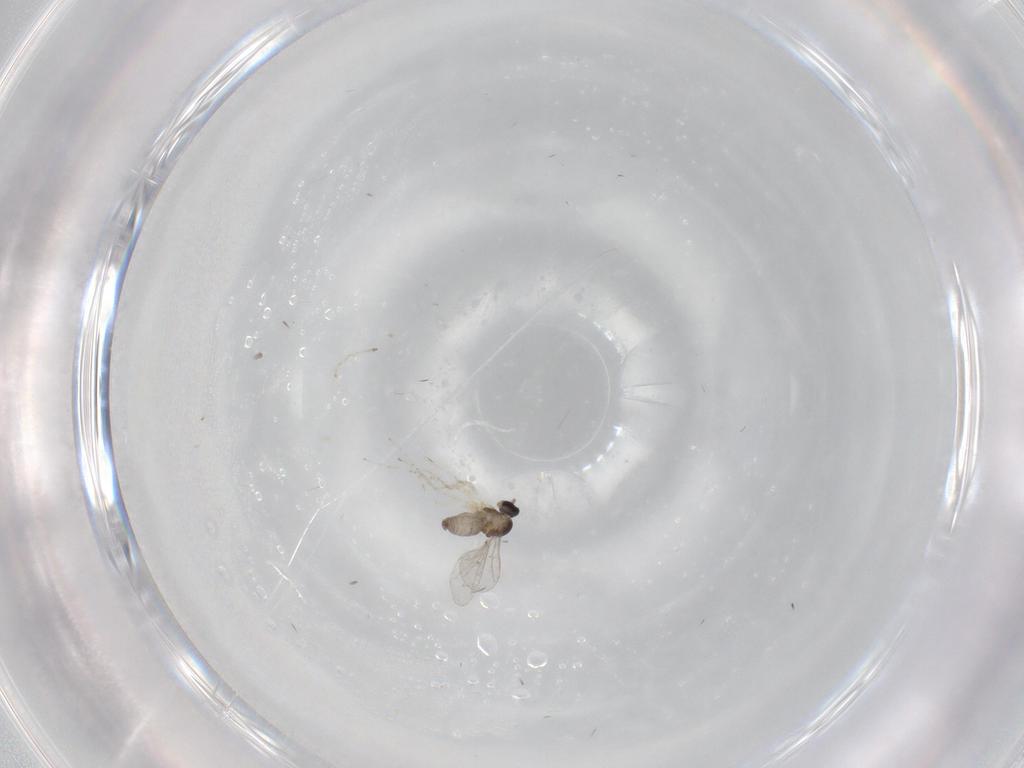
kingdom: Animalia
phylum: Arthropoda
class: Insecta
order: Diptera
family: Cecidomyiidae
